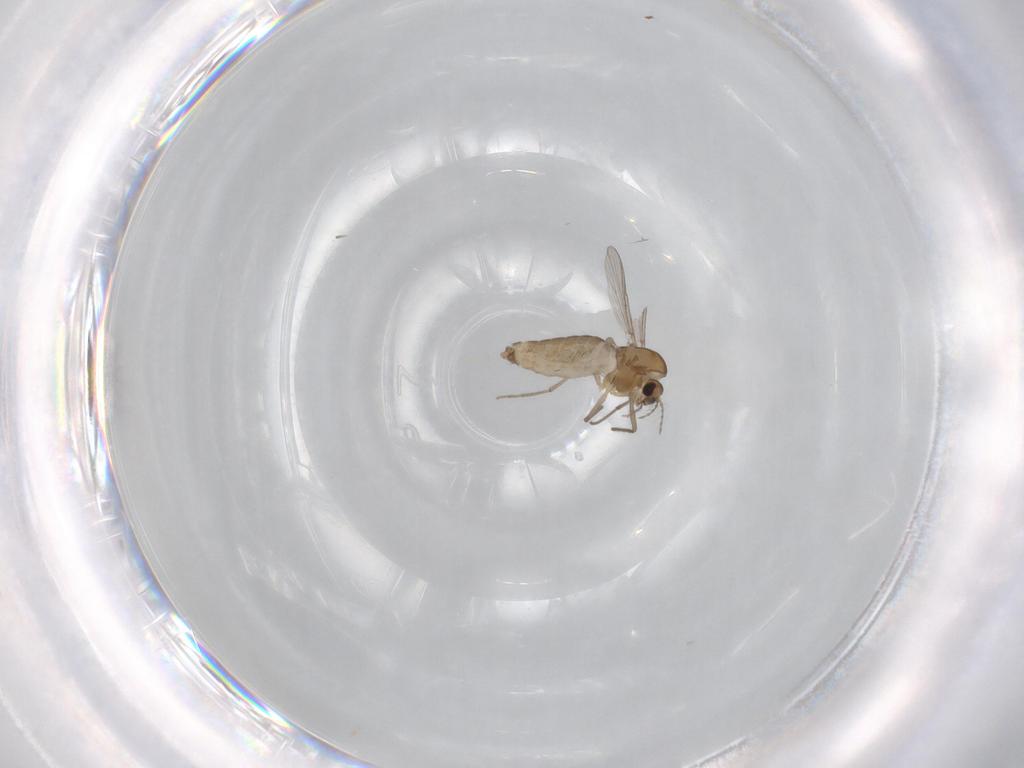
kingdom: Animalia
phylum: Arthropoda
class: Insecta
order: Diptera
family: Chironomidae
